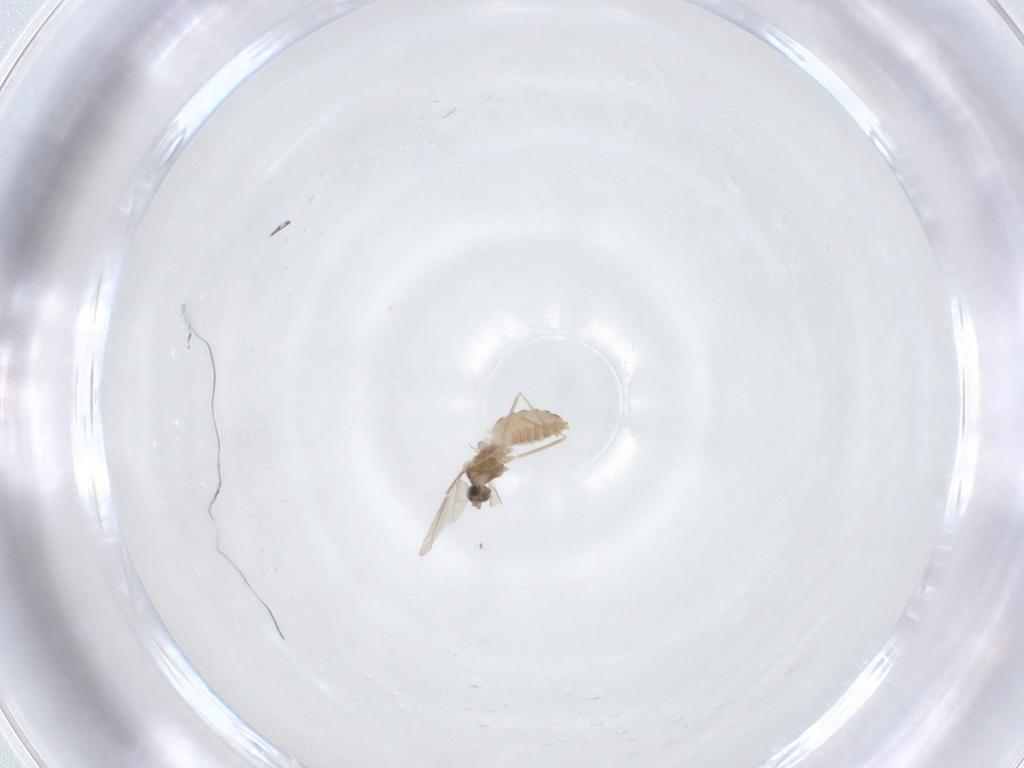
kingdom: Animalia
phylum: Arthropoda
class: Insecta
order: Diptera
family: Cecidomyiidae
